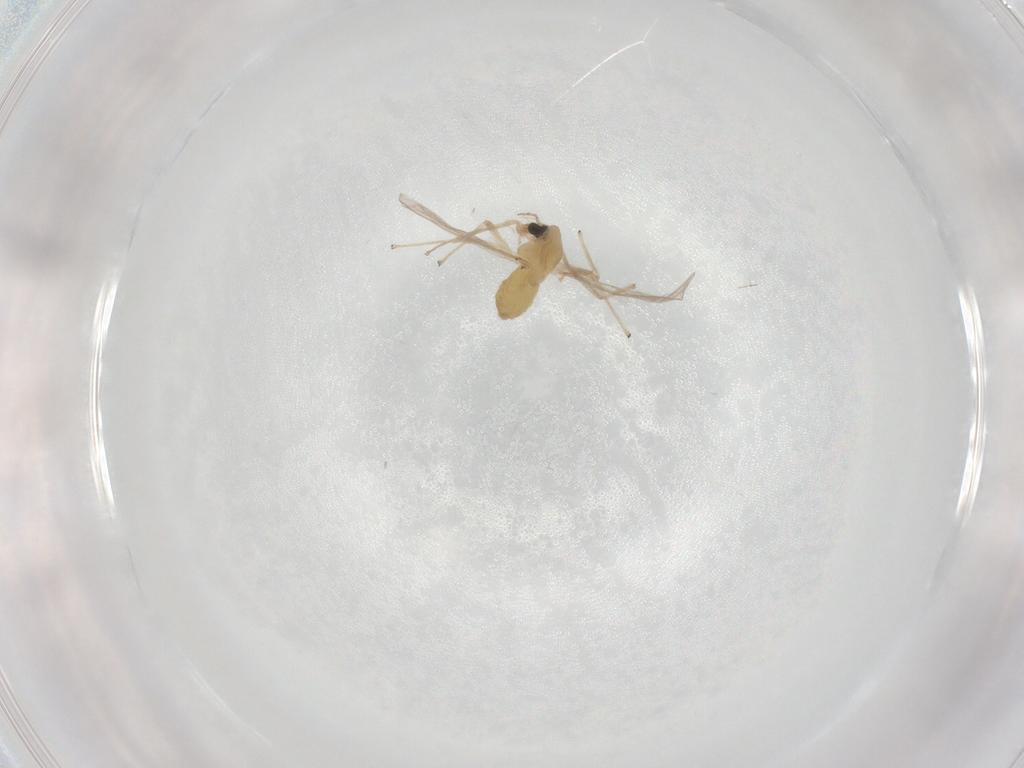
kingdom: Animalia
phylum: Arthropoda
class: Insecta
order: Diptera
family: Chironomidae
